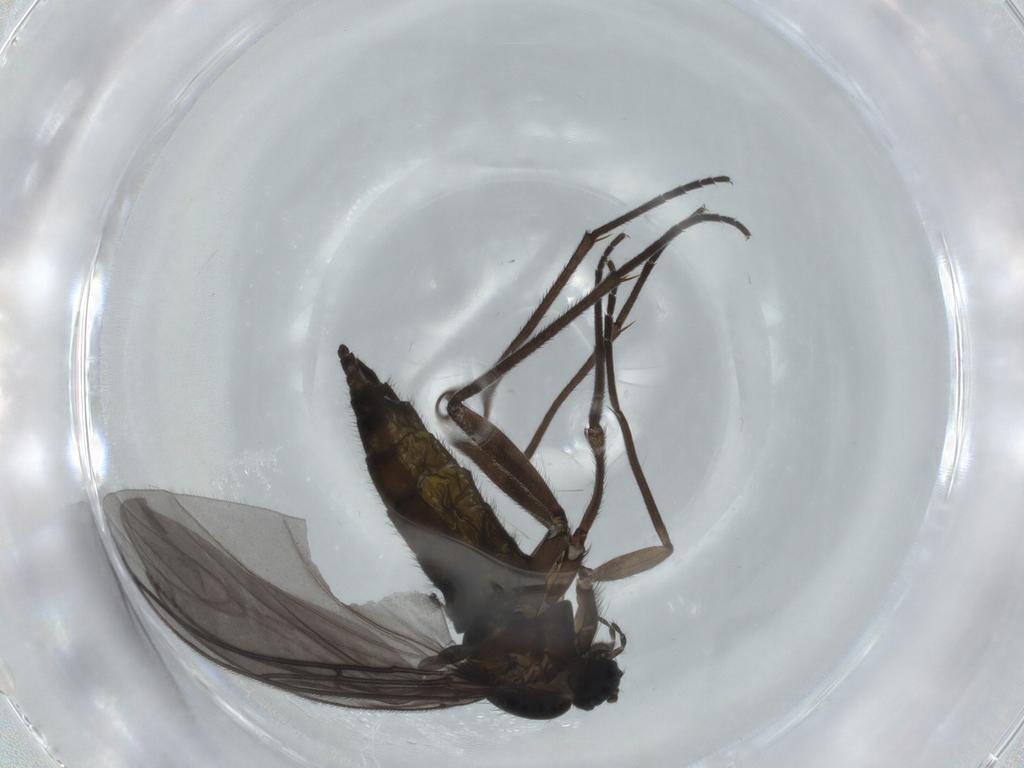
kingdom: Animalia
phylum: Arthropoda
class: Insecta
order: Diptera
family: Sciaridae
